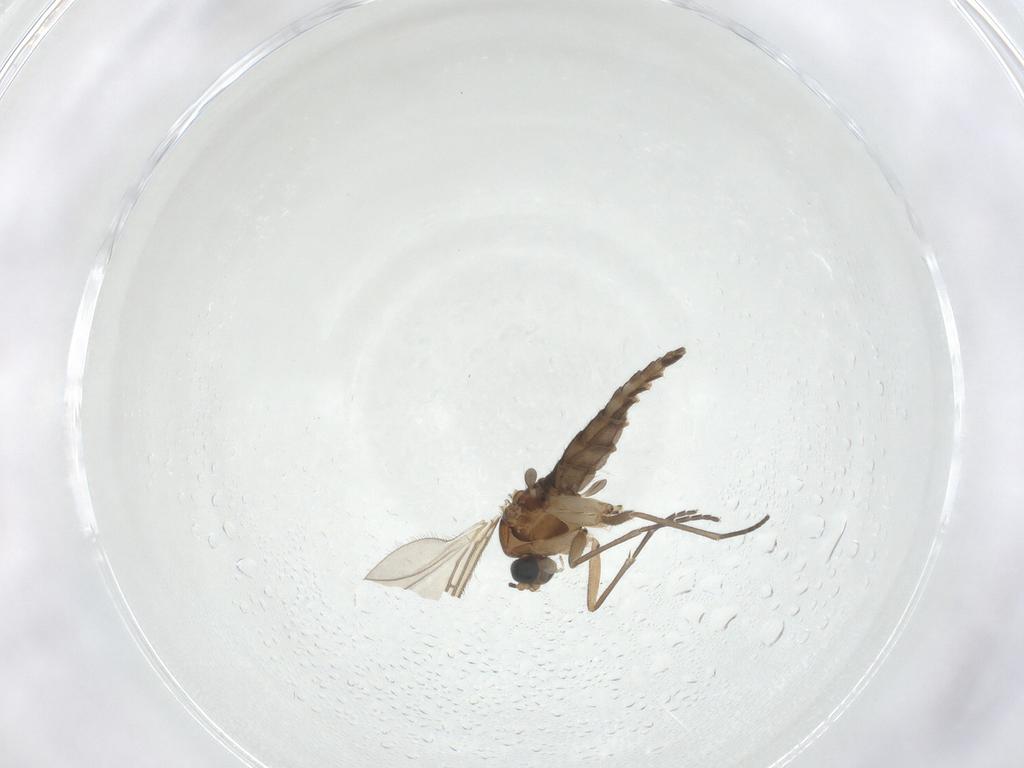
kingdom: Animalia
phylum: Arthropoda
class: Insecta
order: Diptera
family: Sciaridae
